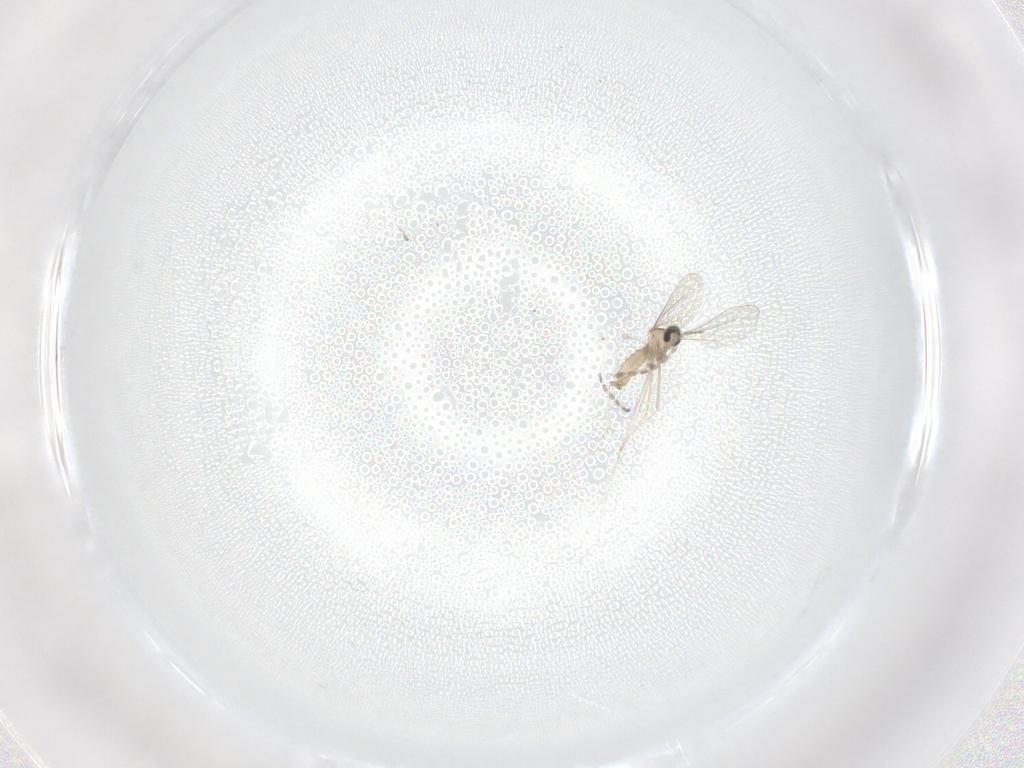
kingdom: Animalia
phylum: Arthropoda
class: Insecta
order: Diptera
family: Cecidomyiidae
